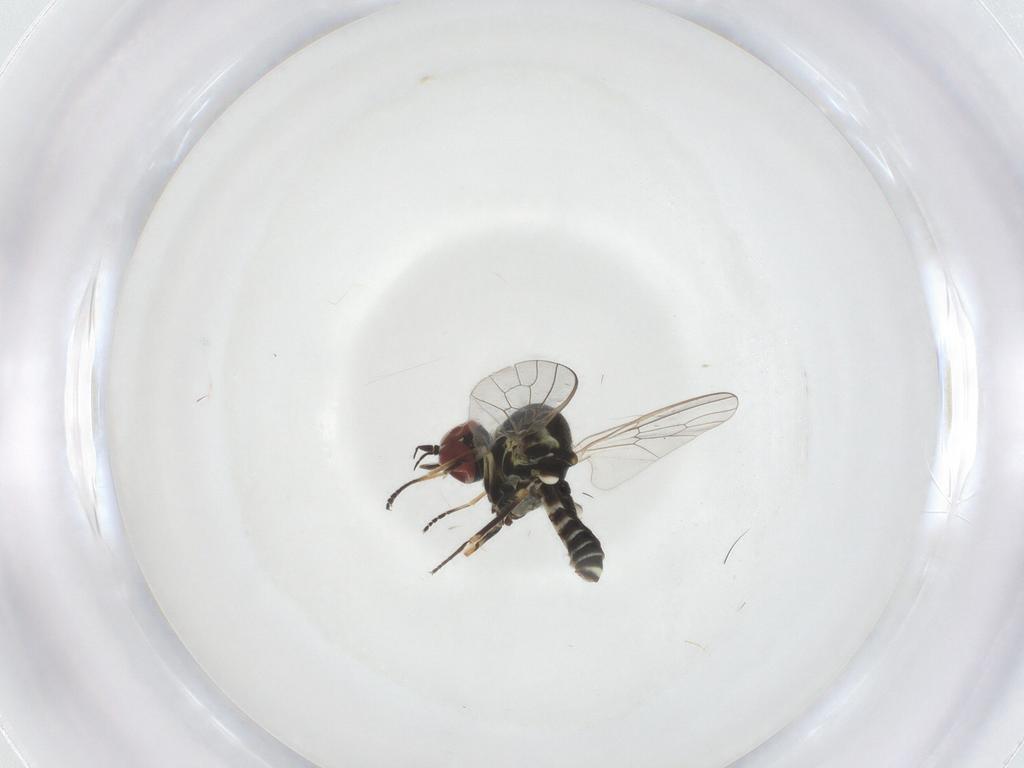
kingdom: Animalia
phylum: Arthropoda
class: Insecta
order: Diptera
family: Bombyliidae
